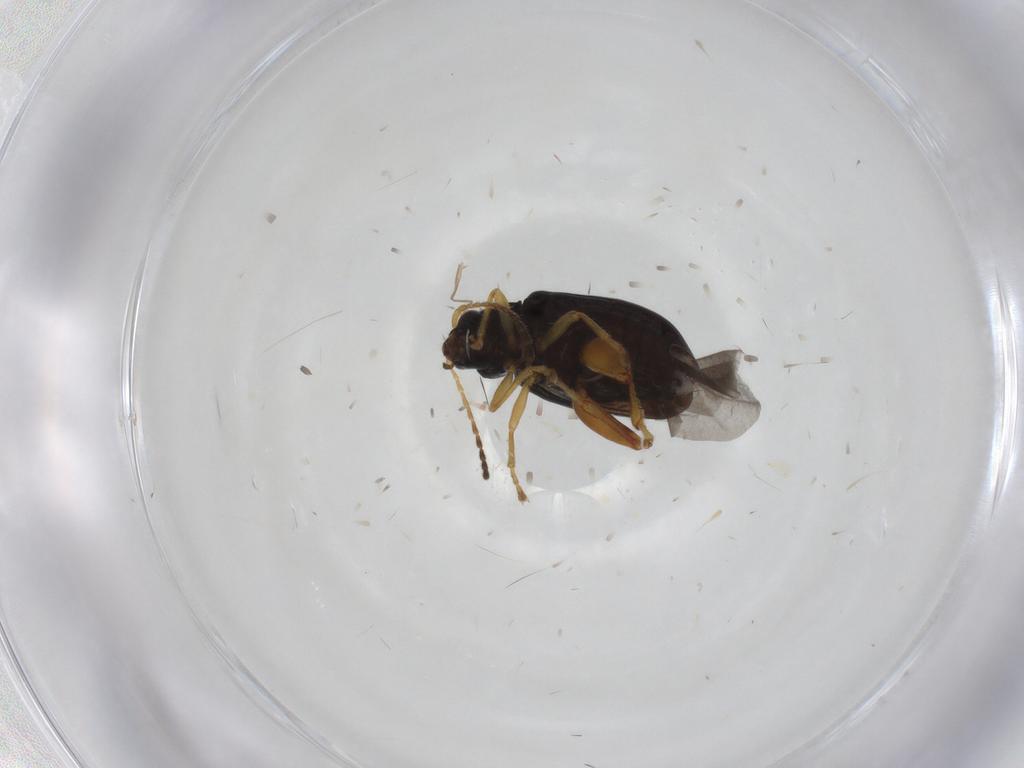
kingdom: Animalia
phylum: Arthropoda
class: Insecta
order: Coleoptera
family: Chrysomelidae
